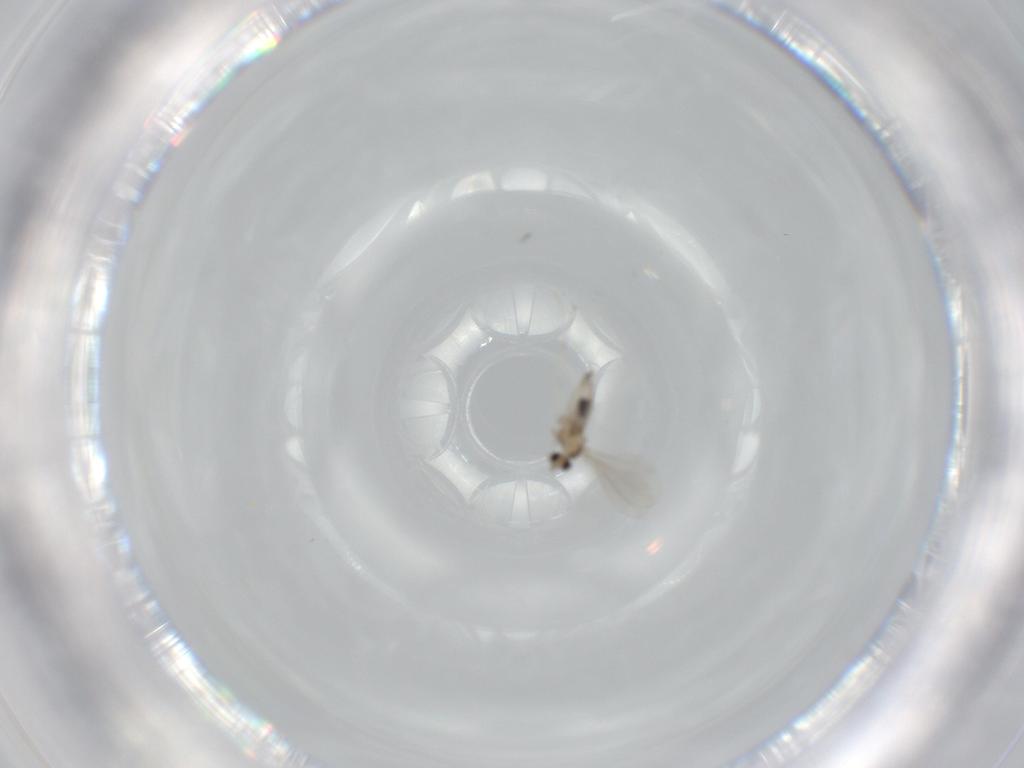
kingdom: Animalia
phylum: Arthropoda
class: Insecta
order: Diptera
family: Cecidomyiidae
